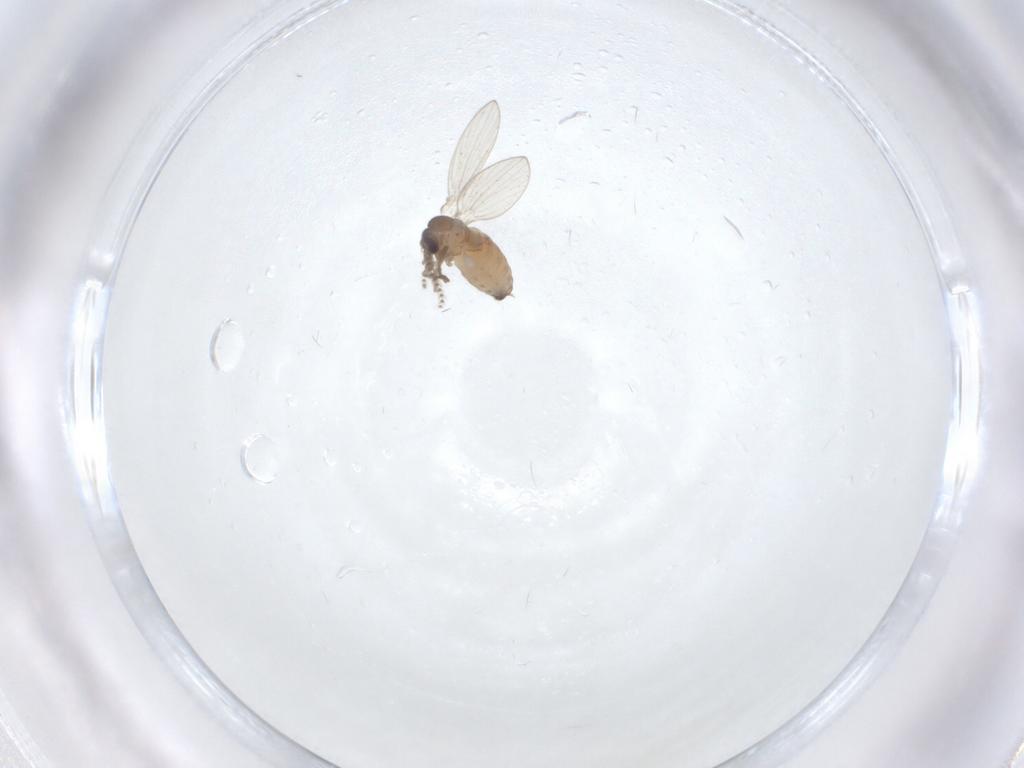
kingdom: Animalia
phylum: Arthropoda
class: Insecta
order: Diptera
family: Psychodidae
